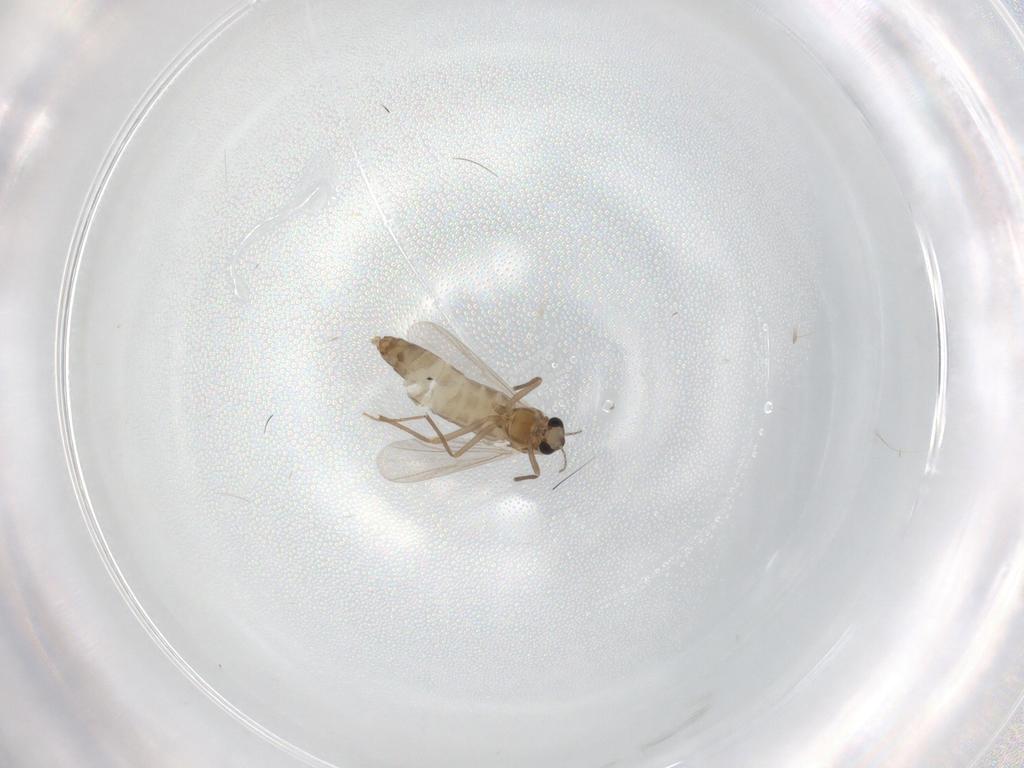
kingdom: Animalia
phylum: Arthropoda
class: Insecta
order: Diptera
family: Chironomidae
